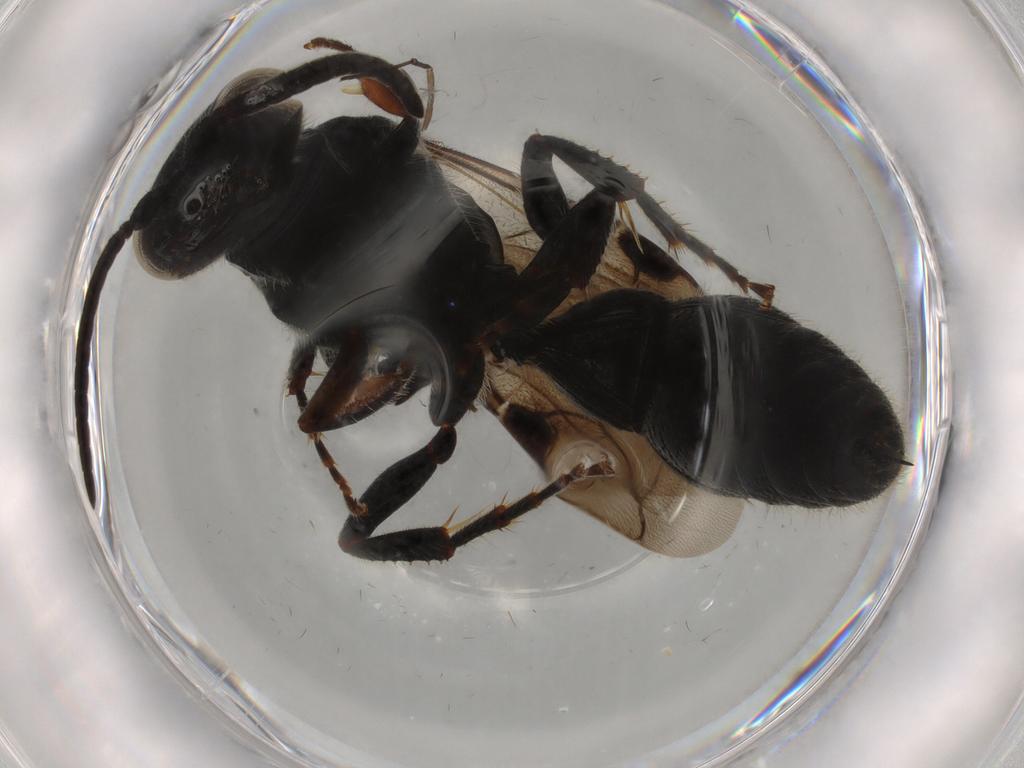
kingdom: Animalia
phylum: Arthropoda
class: Insecta
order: Hymenoptera
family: Tiphiidae
